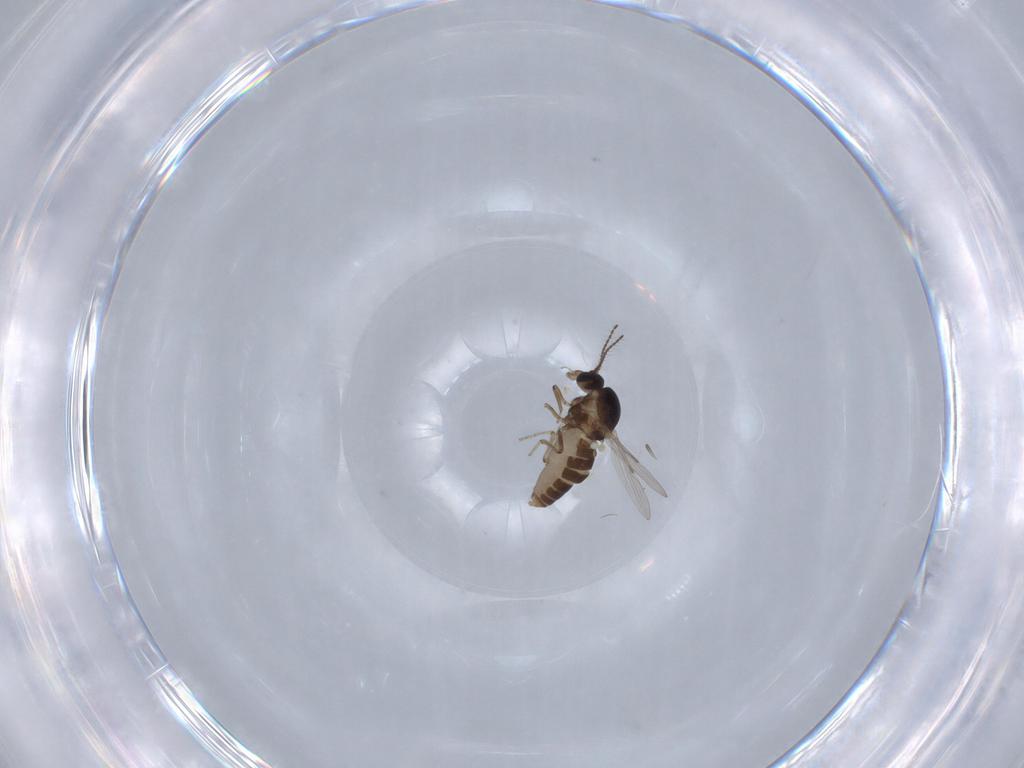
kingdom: Animalia
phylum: Arthropoda
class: Insecta
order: Diptera
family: Ceratopogonidae
